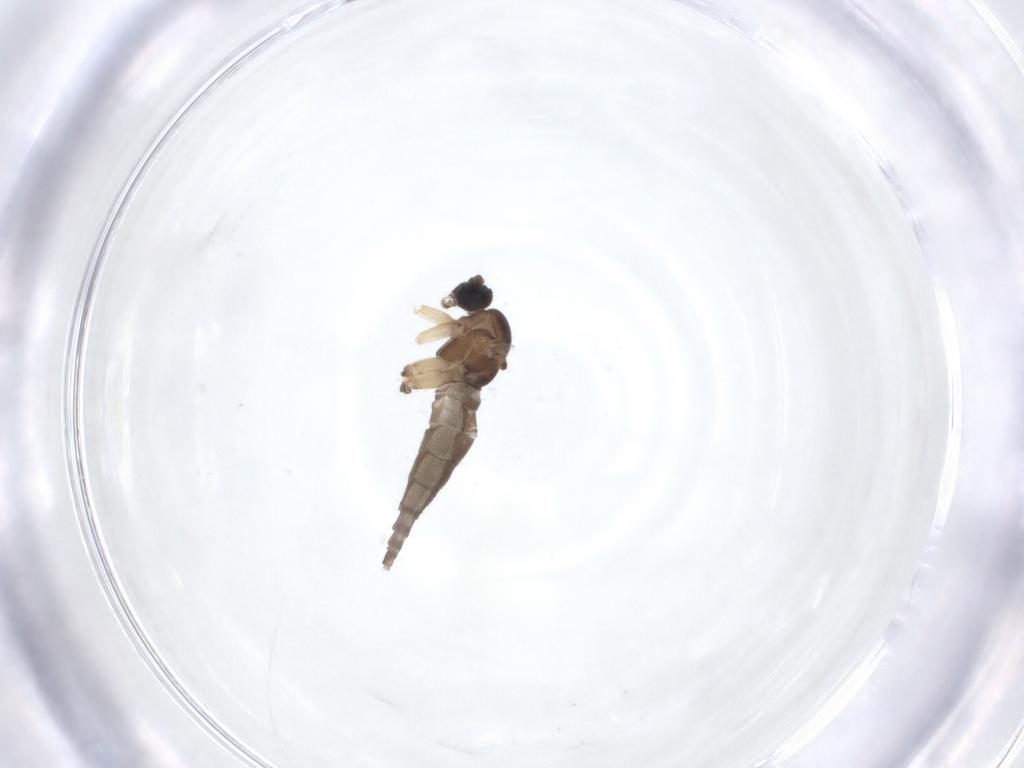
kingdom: Animalia
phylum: Arthropoda
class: Insecta
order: Diptera
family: Sciaridae
